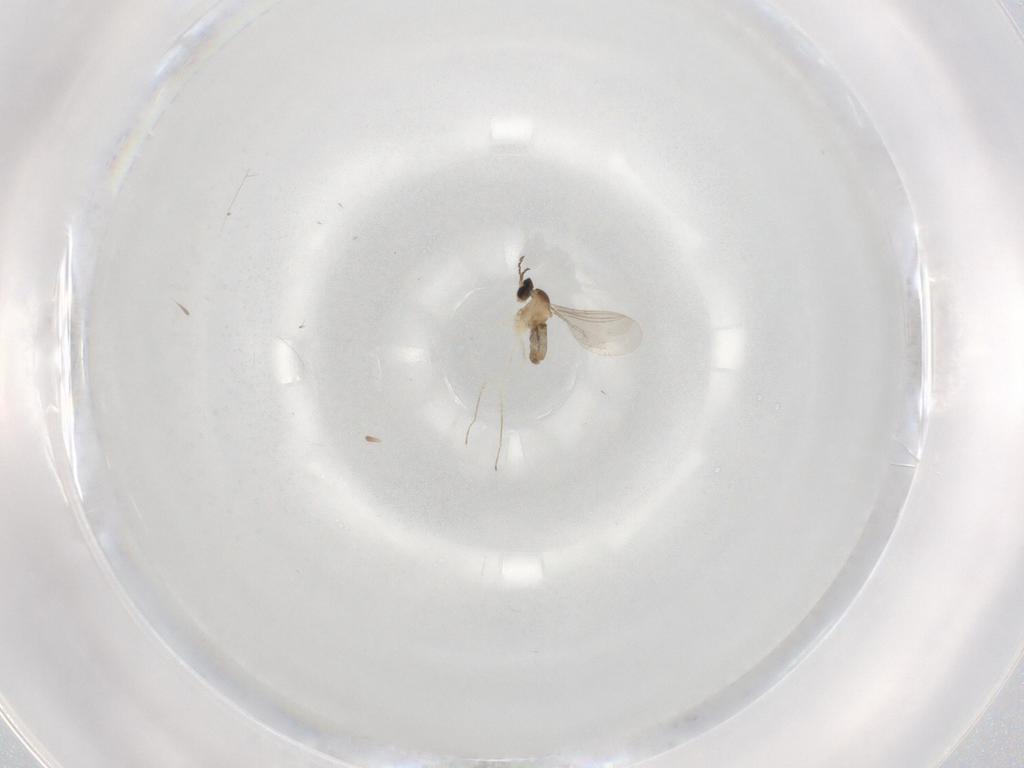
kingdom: Animalia
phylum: Arthropoda
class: Insecta
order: Diptera
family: Cecidomyiidae
